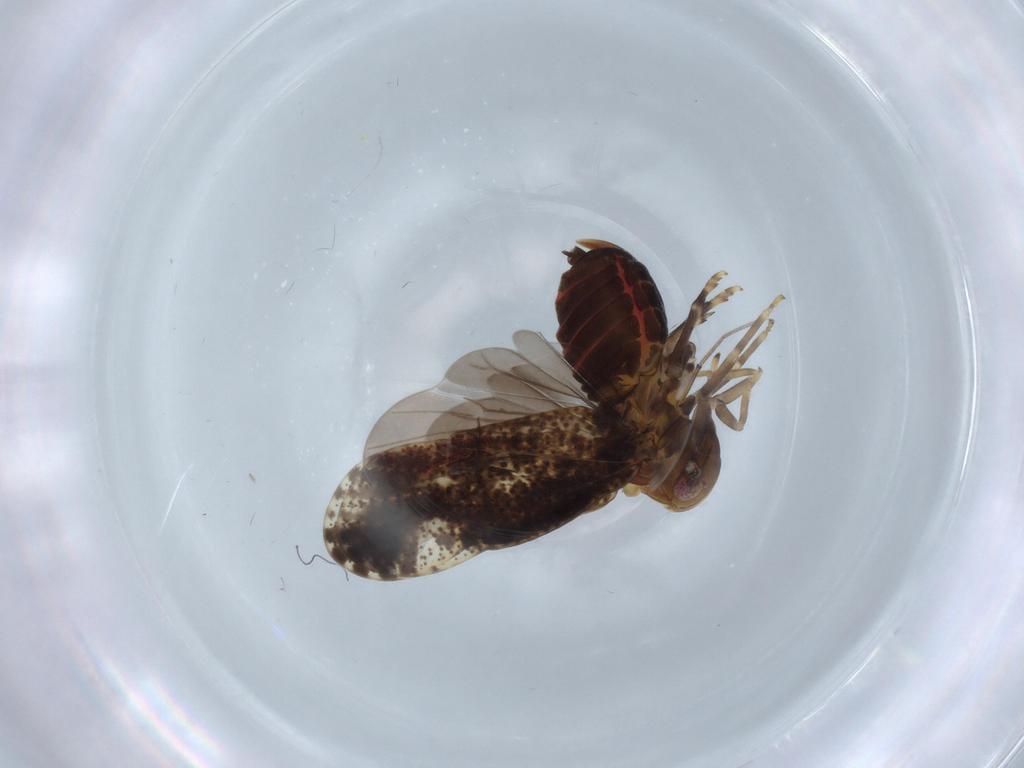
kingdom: Animalia
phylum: Arthropoda
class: Insecta
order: Hemiptera
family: Delphacidae
